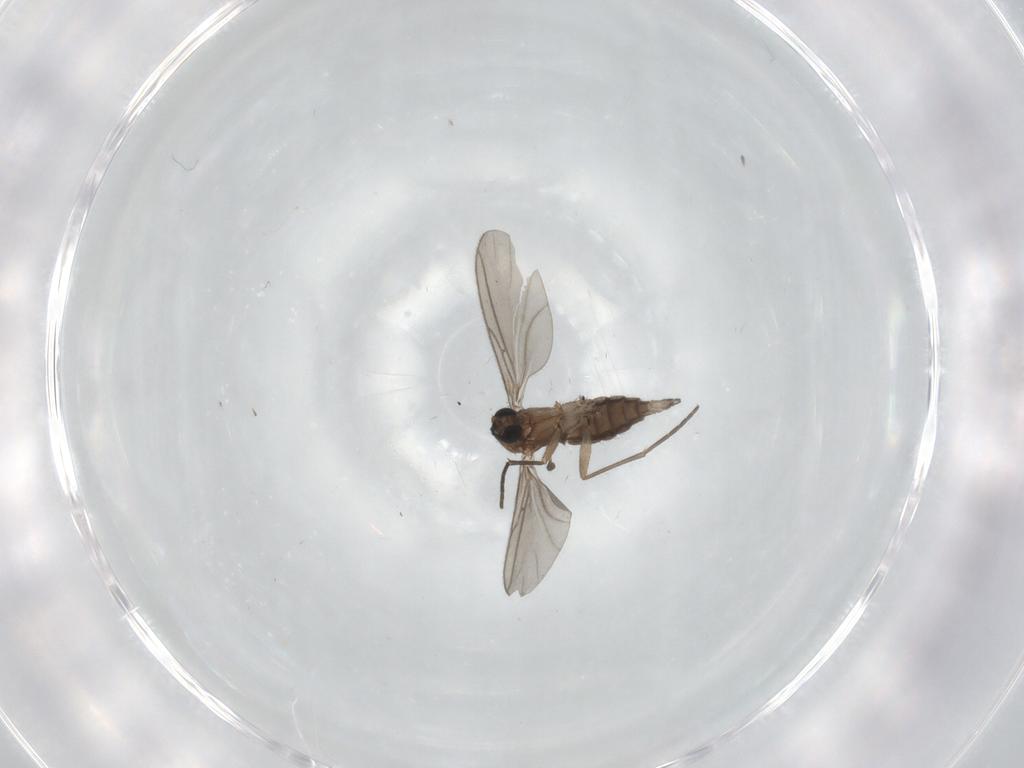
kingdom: Animalia
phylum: Arthropoda
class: Insecta
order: Diptera
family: Sciaridae
